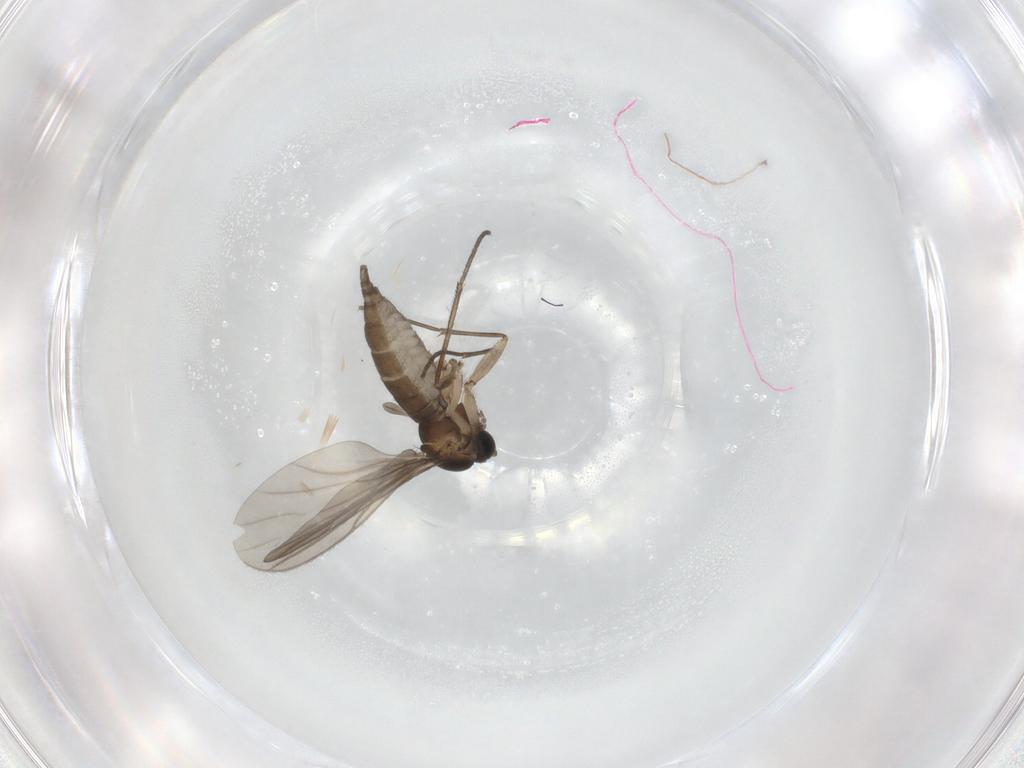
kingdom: Animalia
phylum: Arthropoda
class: Insecta
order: Diptera
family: Sciaridae
